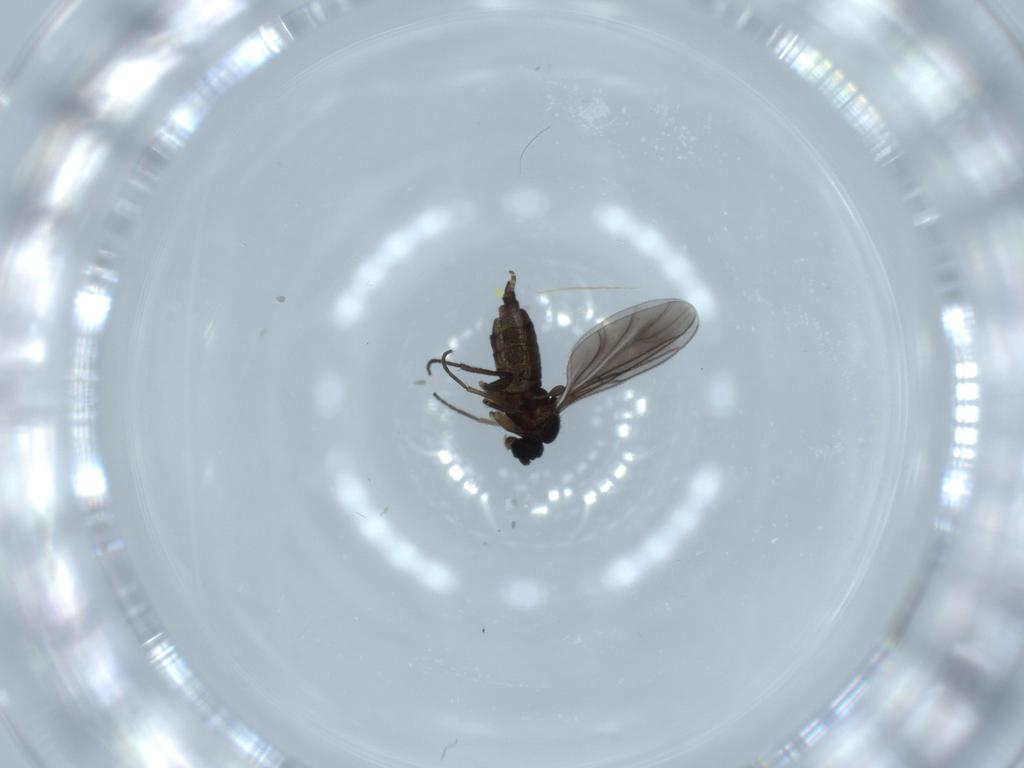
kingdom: Animalia
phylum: Arthropoda
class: Insecta
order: Diptera
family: Sciaridae
